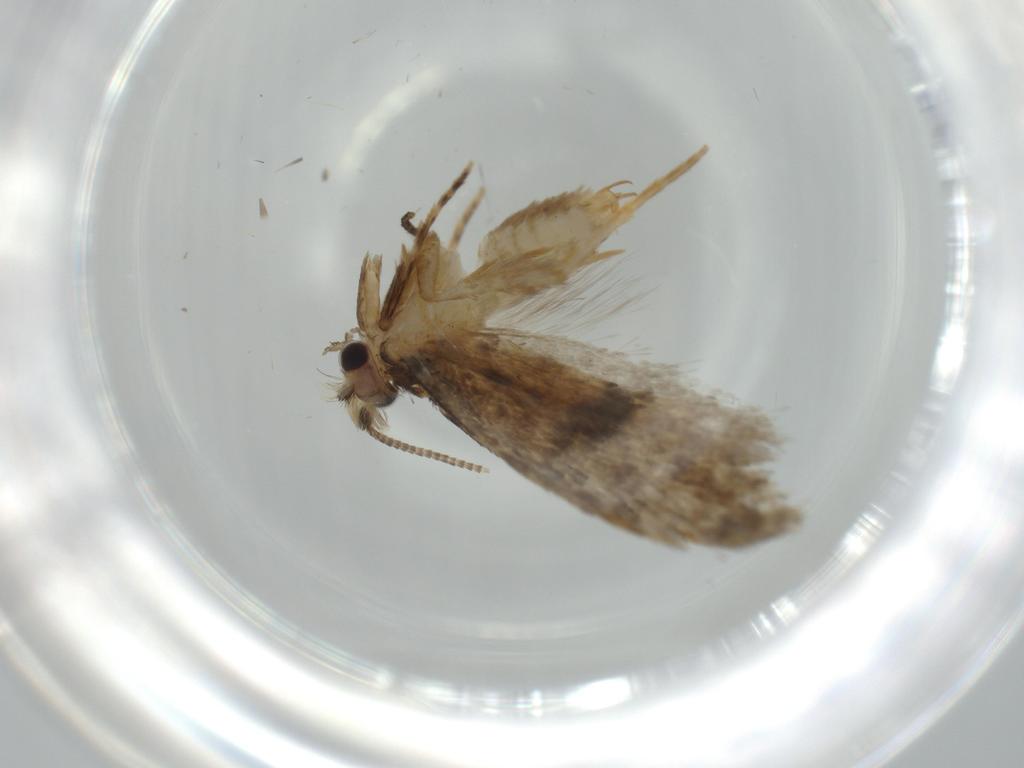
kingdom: Animalia
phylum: Arthropoda
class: Insecta
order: Lepidoptera
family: Tineidae
